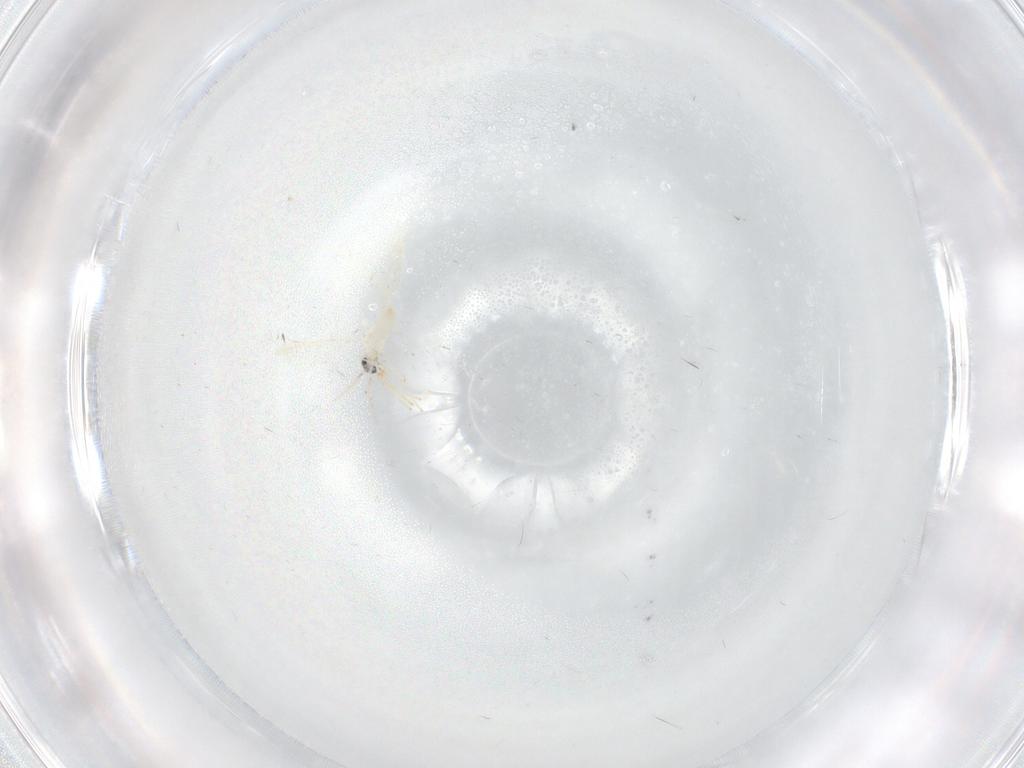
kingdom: Animalia
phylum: Arthropoda
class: Insecta
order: Diptera
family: Cecidomyiidae
